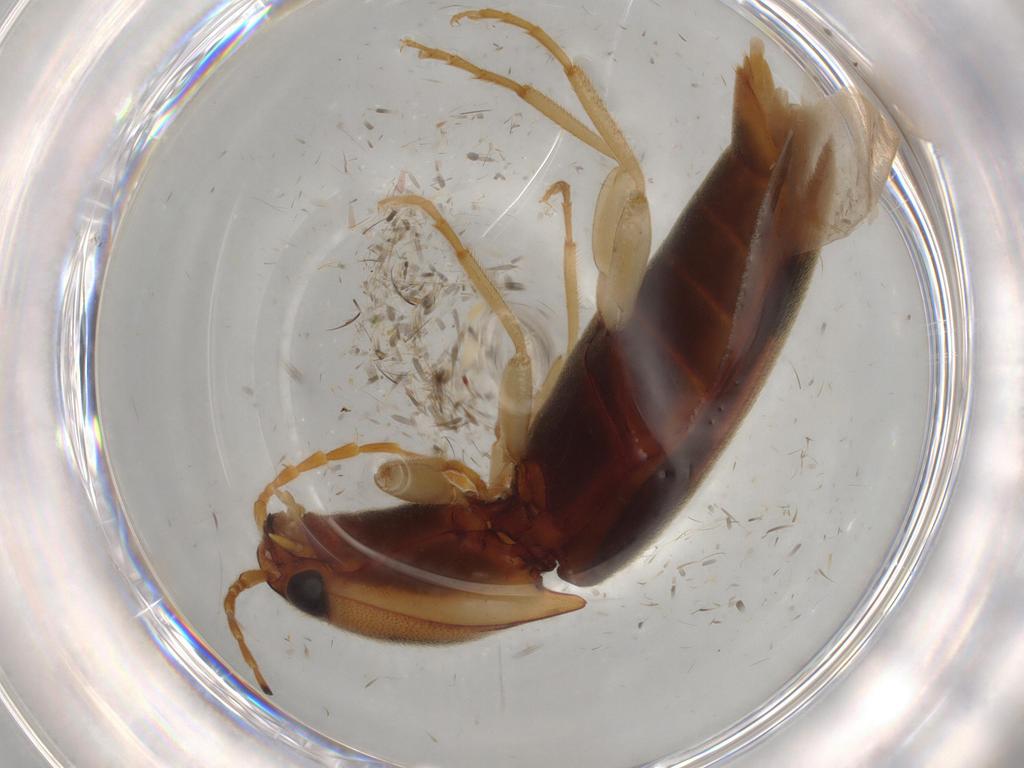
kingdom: Animalia
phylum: Arthropoda
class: Insecta
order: Coleoptera
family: Elateridae
